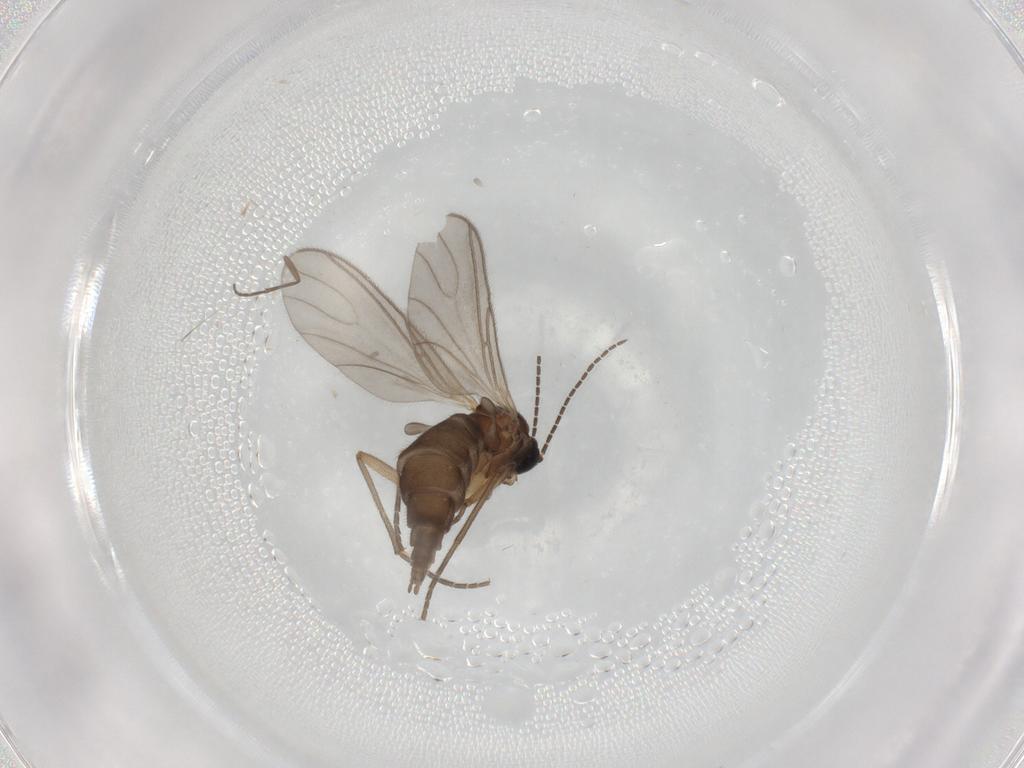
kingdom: Animalia
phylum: Arthropoda
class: Insecta
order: Diptera
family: Sciaridae
